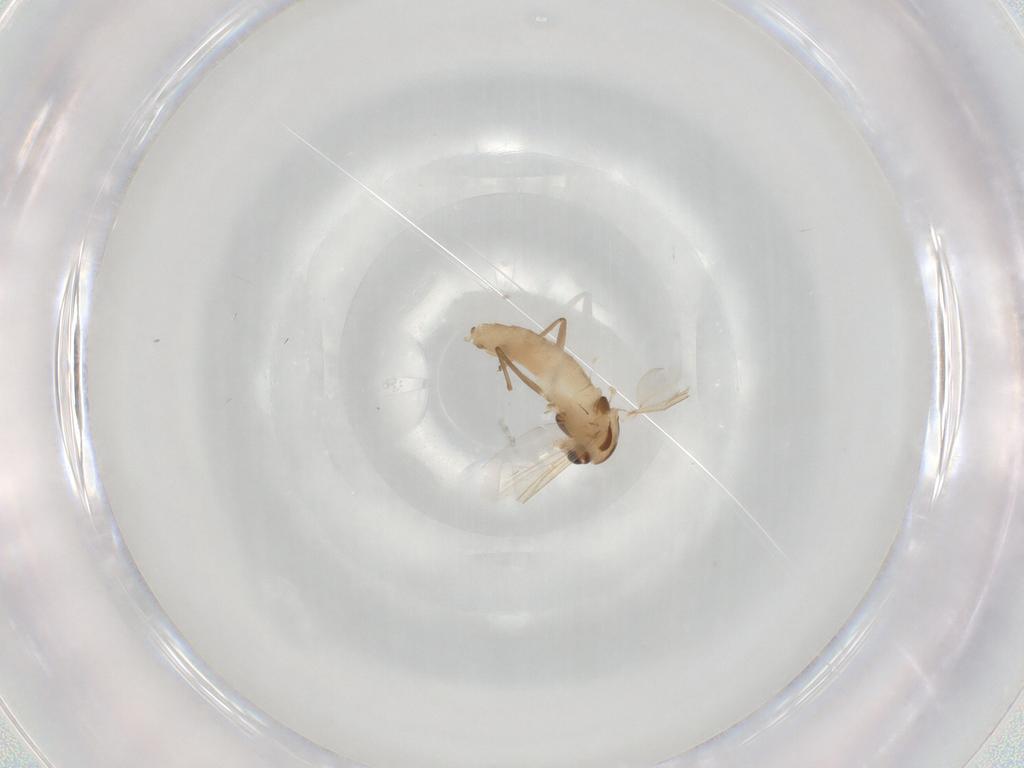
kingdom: Animalia
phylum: Arthropoda
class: Insecta
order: Diptera
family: Chironomidae
